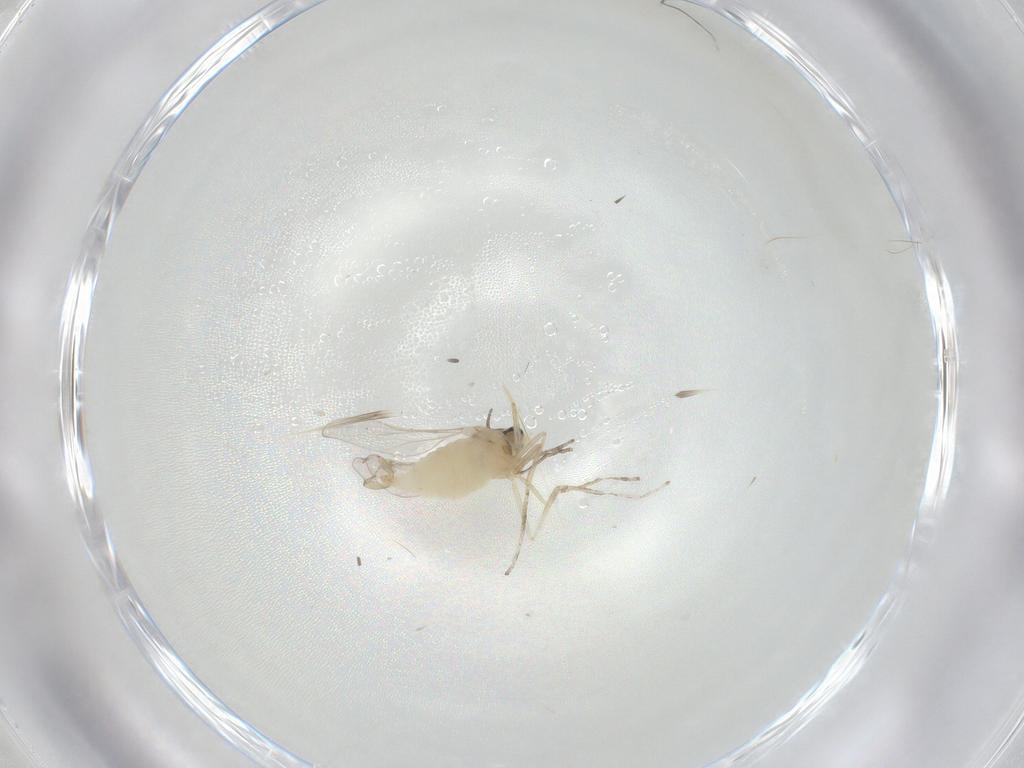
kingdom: Animalia
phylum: Arthropoda
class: Insecta
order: Diptera
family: Cecidomyiidae
